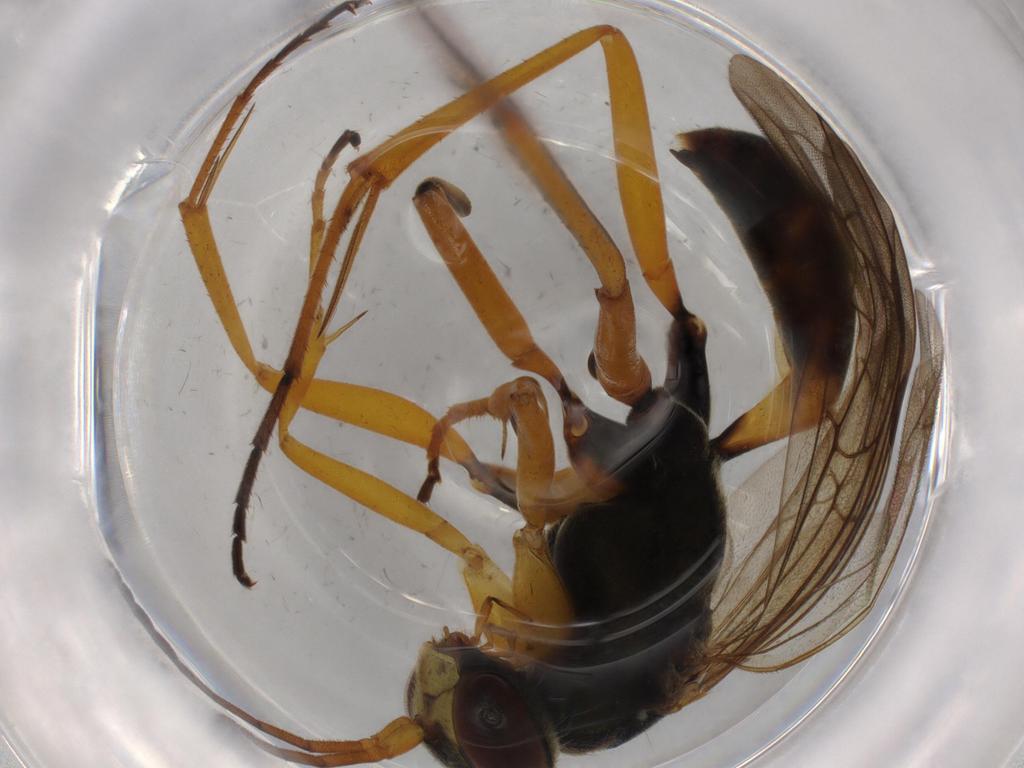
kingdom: Animalia
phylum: Arthropoda
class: Insecta
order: Hymenoptera
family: Pompilidae
